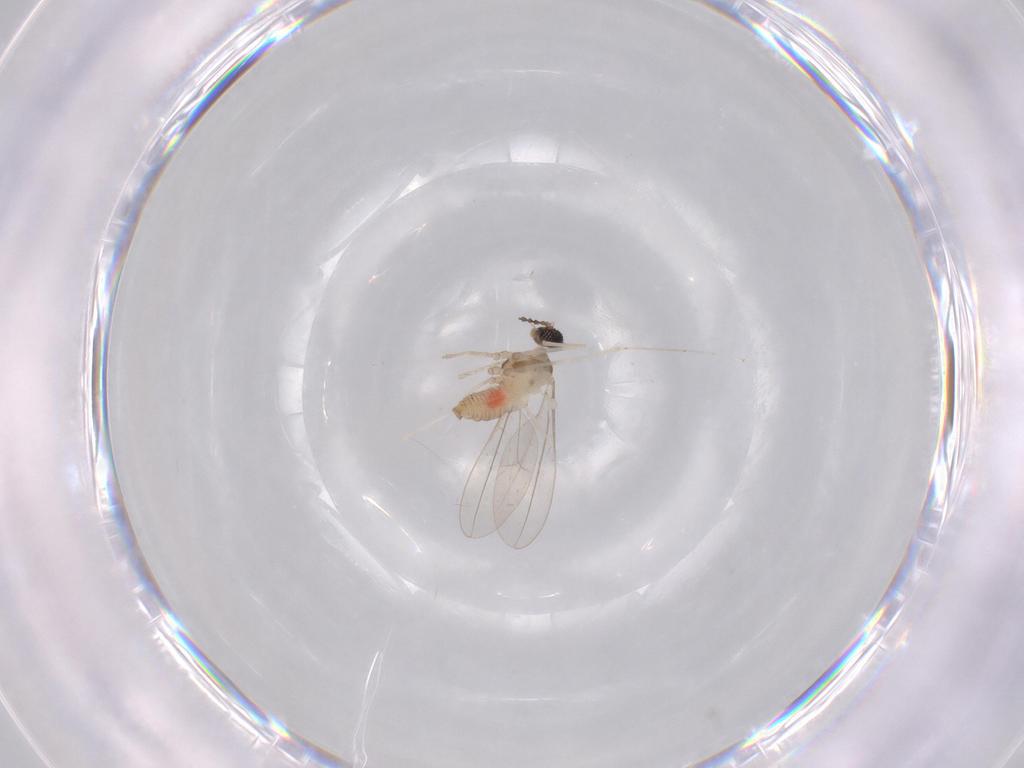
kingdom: Animalia
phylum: Arthropoda
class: Insecta
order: Diptera
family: Cecidomyiidae
